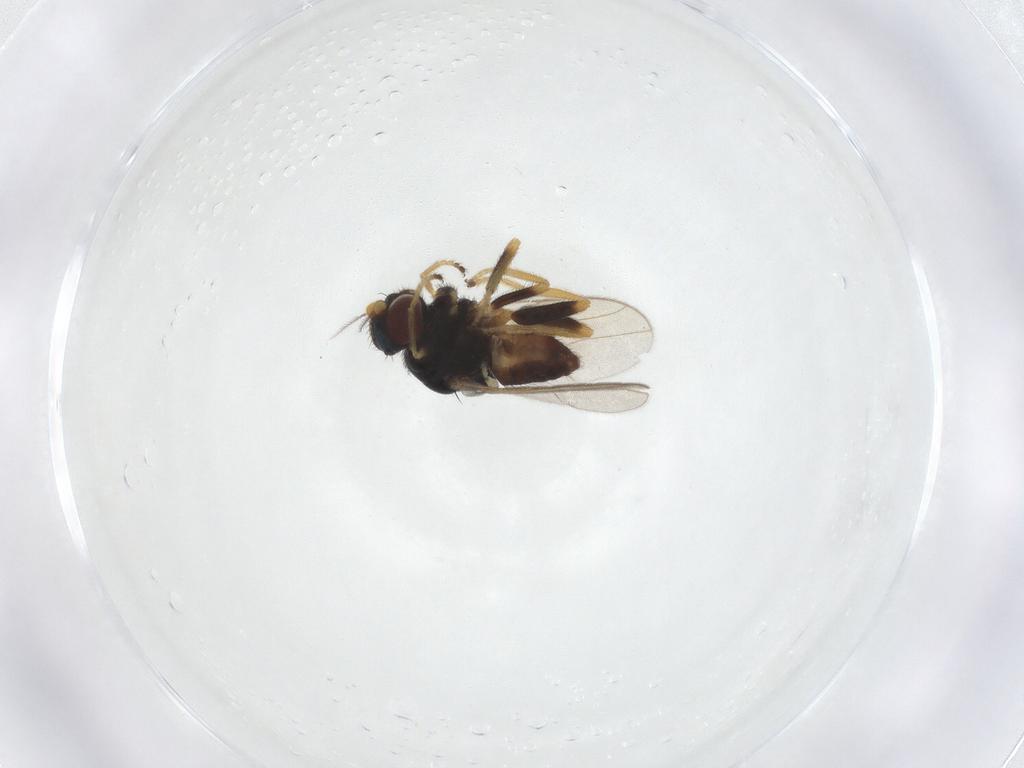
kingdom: Animalia
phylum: Arthropoda
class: Insecta
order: Diptera
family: Chloropidae
